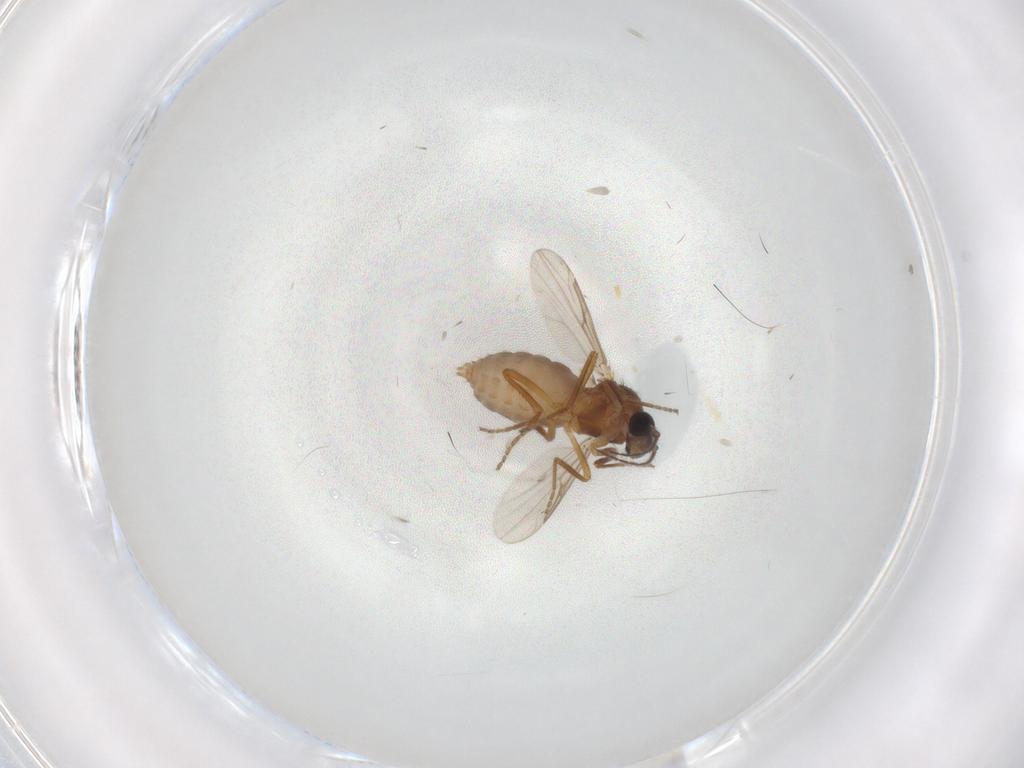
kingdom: Animalia
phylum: Arthropoda
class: Insecta
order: Diptera
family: Ceratopogonidae
